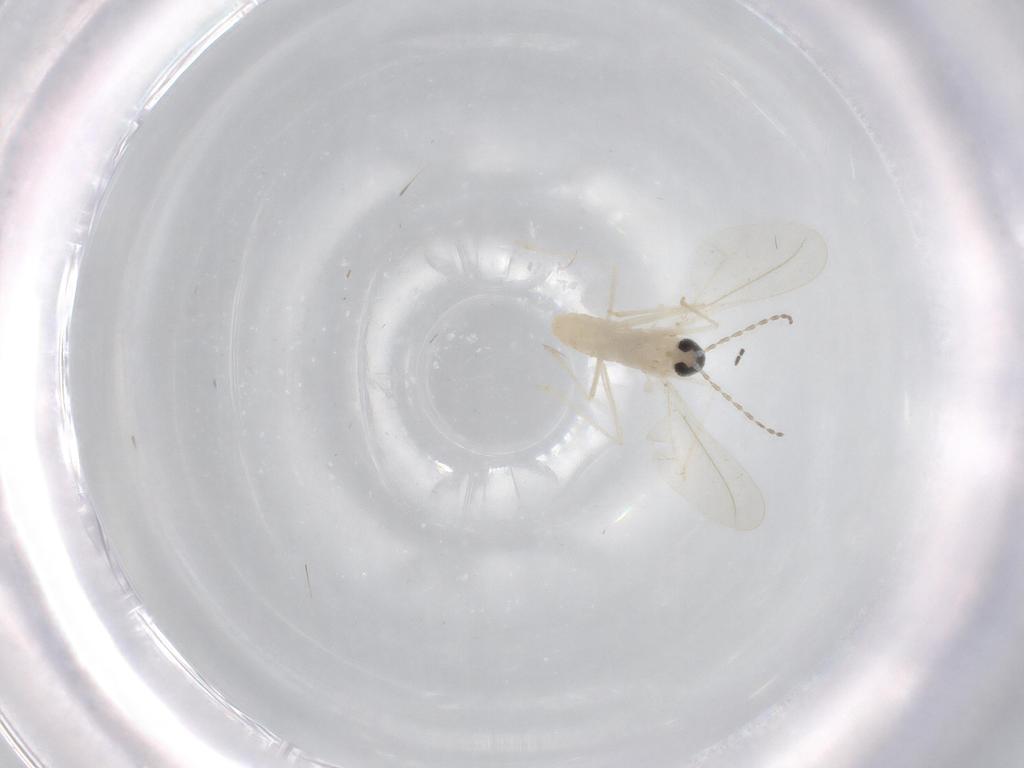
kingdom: Animalia
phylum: Arthropoda
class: Insecta
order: Diptera
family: Cecidomyiidae
